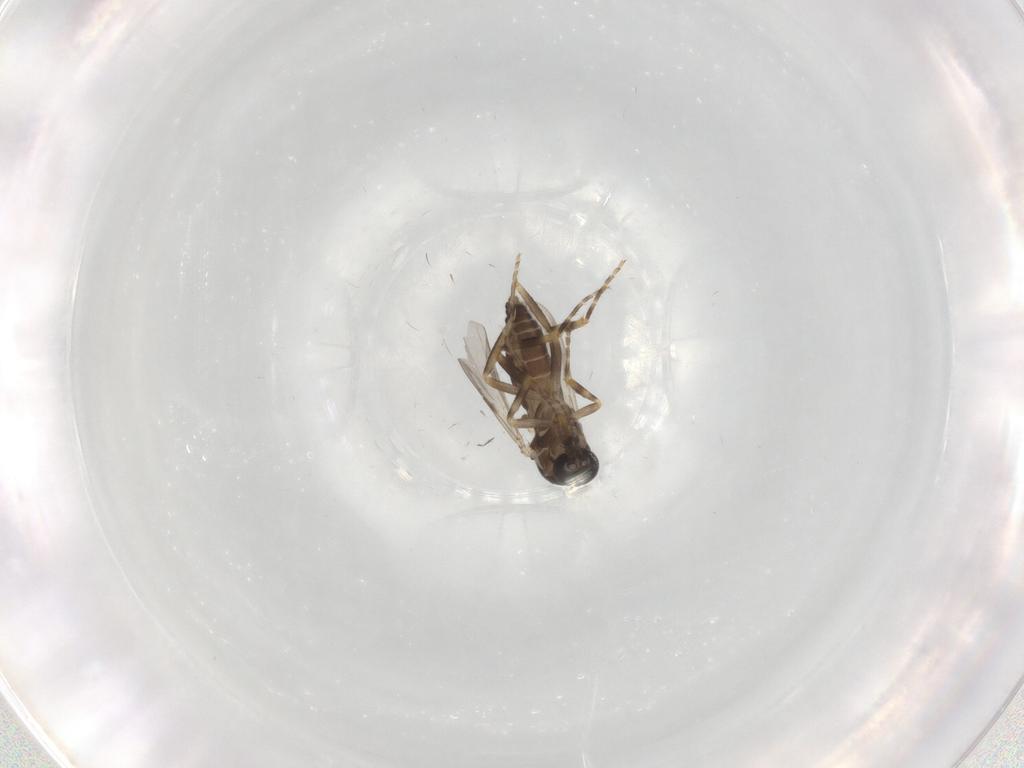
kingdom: Animalia
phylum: Arthropoda
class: Insecta
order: Diptera
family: Ceratopogonidae
